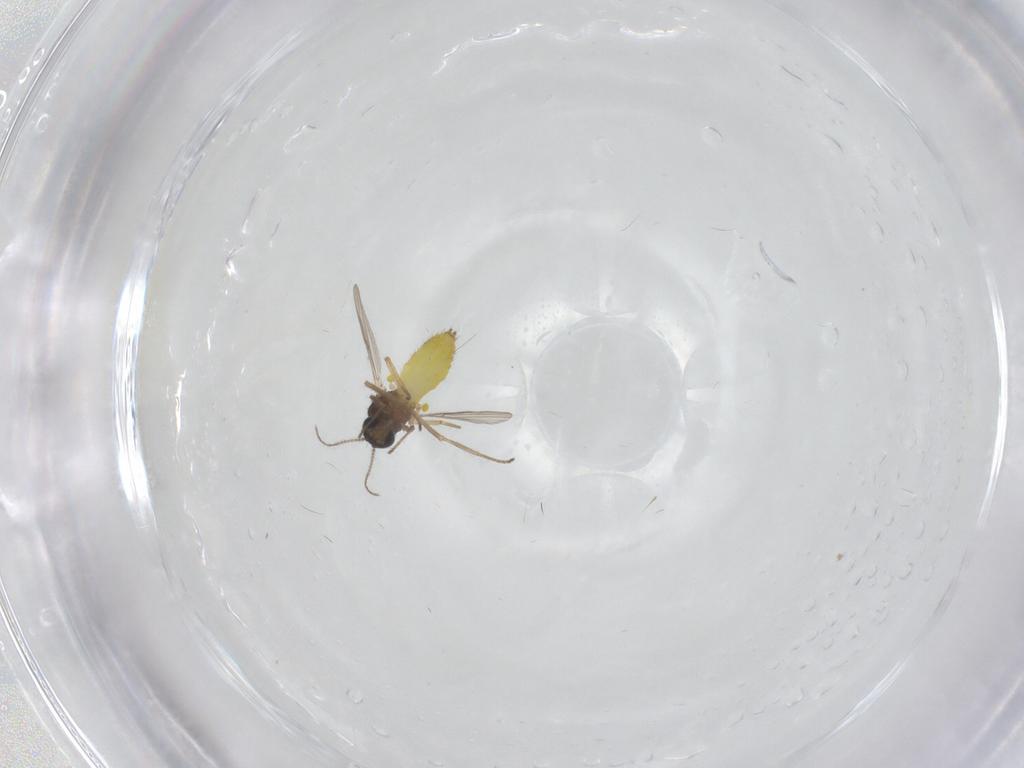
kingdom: Animalia
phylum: Arthropoda
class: Insecta
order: Diptera
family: Ceratopogonidae
